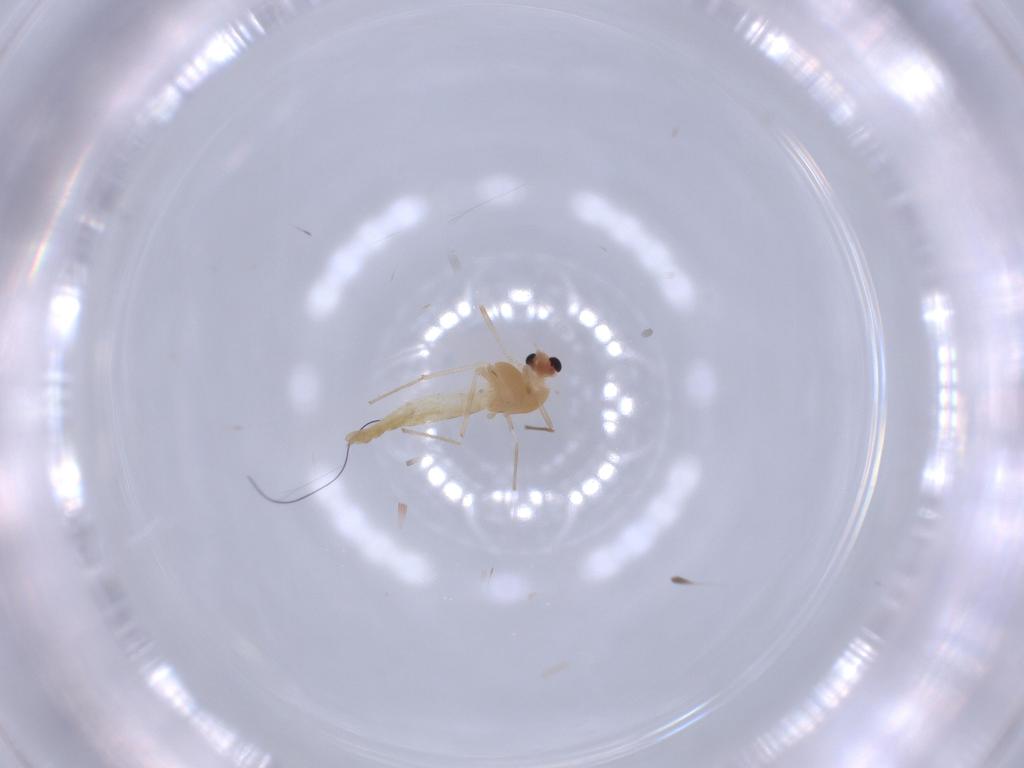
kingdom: Animalia
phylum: Arthropoda
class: Insecta
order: Diptera
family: Chironomidae
